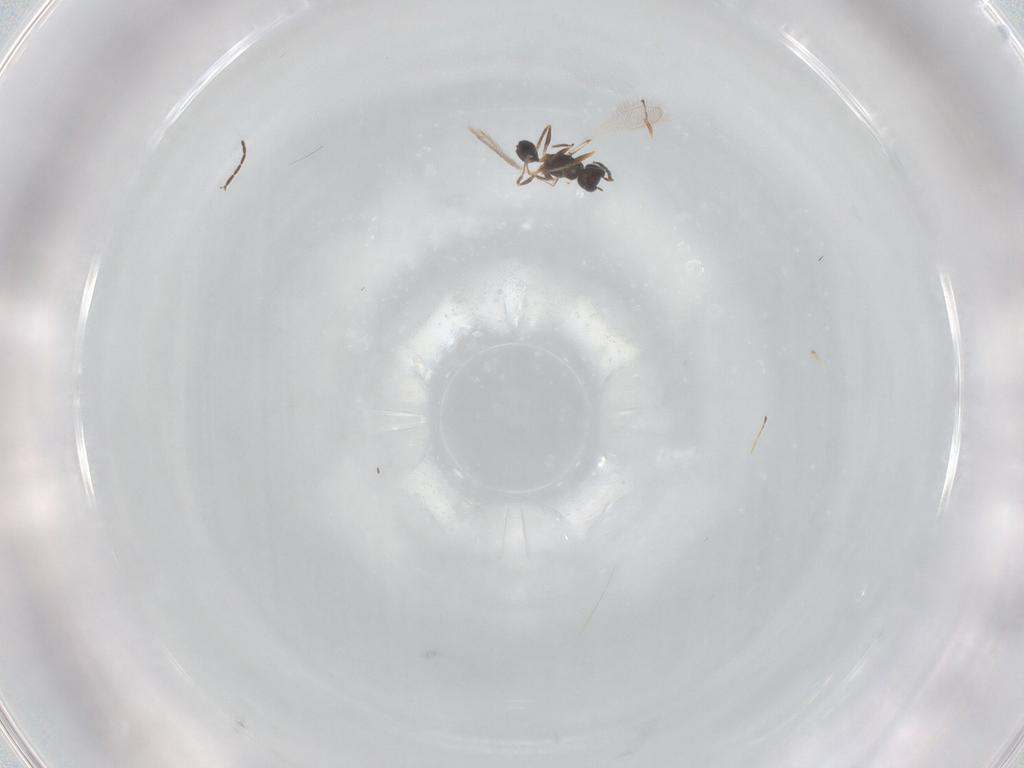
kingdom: Animalia
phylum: Arthropoda
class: Insecta
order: Hymenoptera
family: Mymaridae
